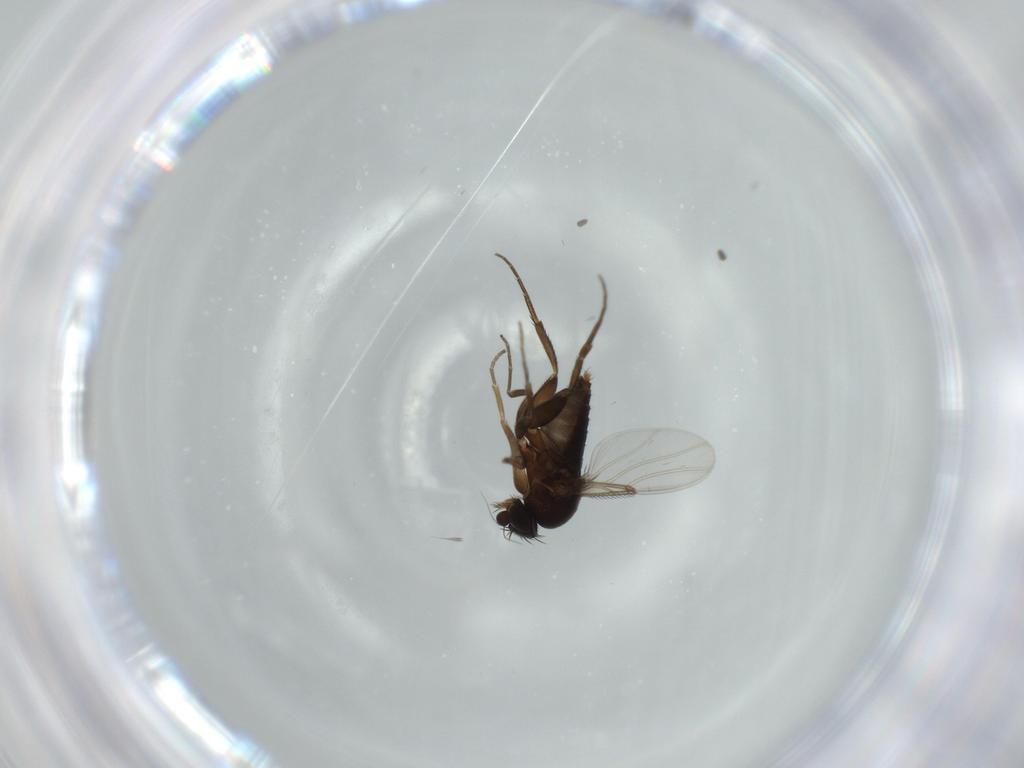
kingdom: Animalia
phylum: Arthropoda
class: Insecta
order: Diptera
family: Phoridae
